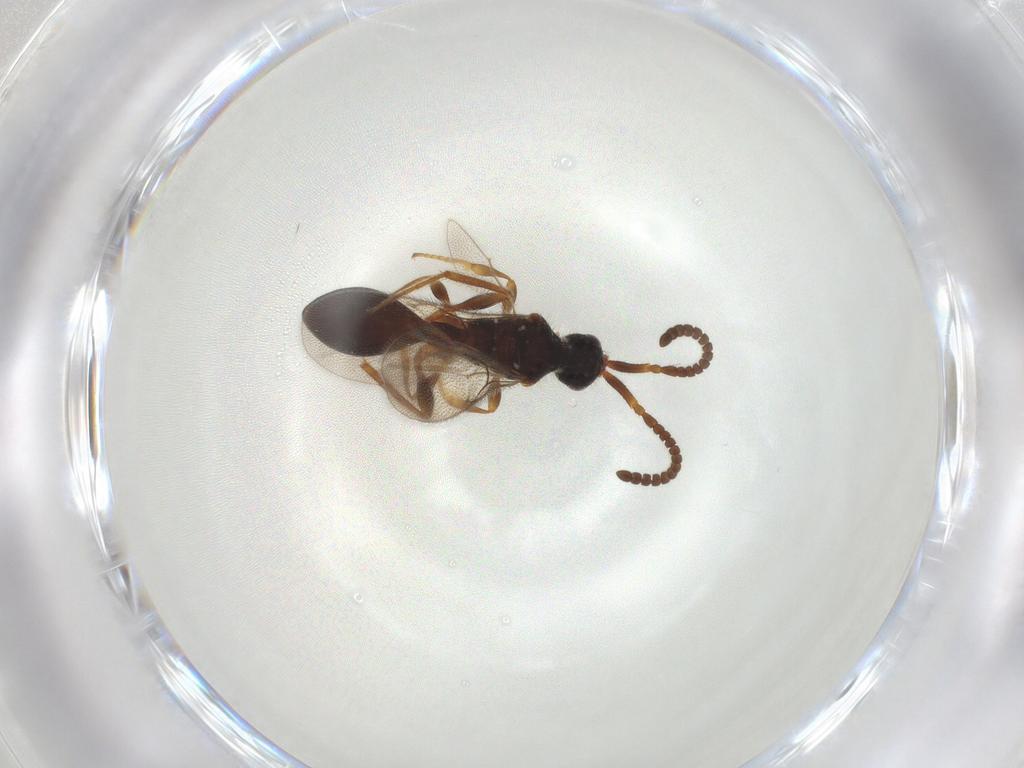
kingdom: Animalia
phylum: Arthropoda
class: Insecta
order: Hymenoptera
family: Diapriidae
